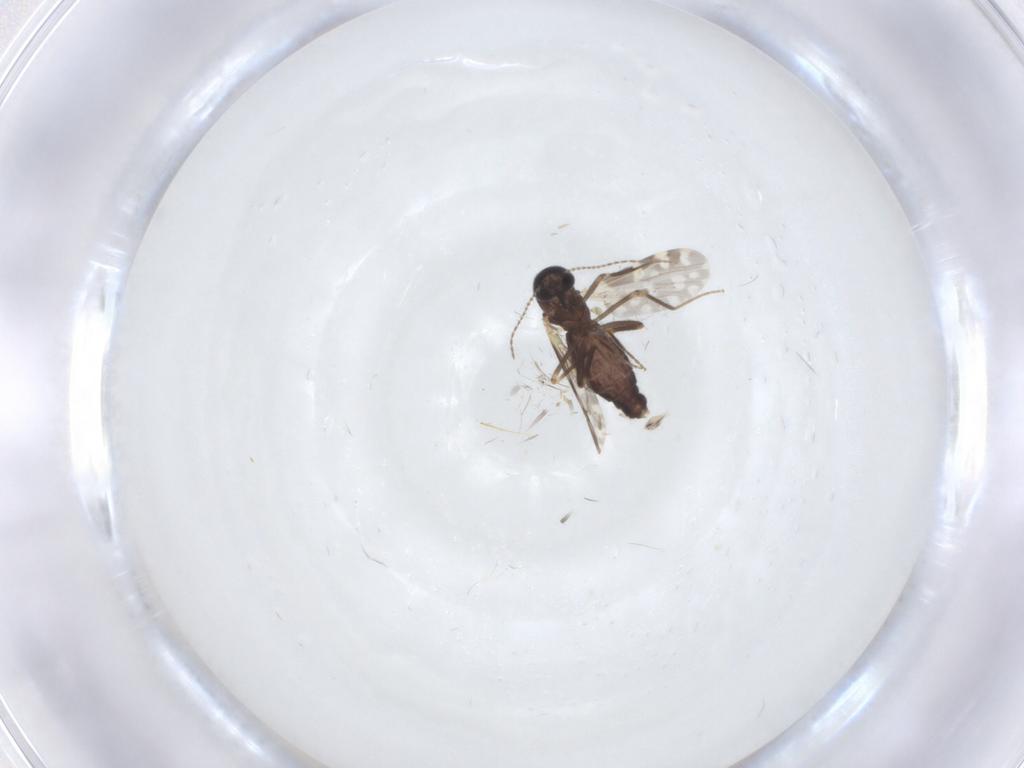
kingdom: Animalia
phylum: Arthropoda
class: Insecta
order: Diptera
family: Ceratopogonidae
